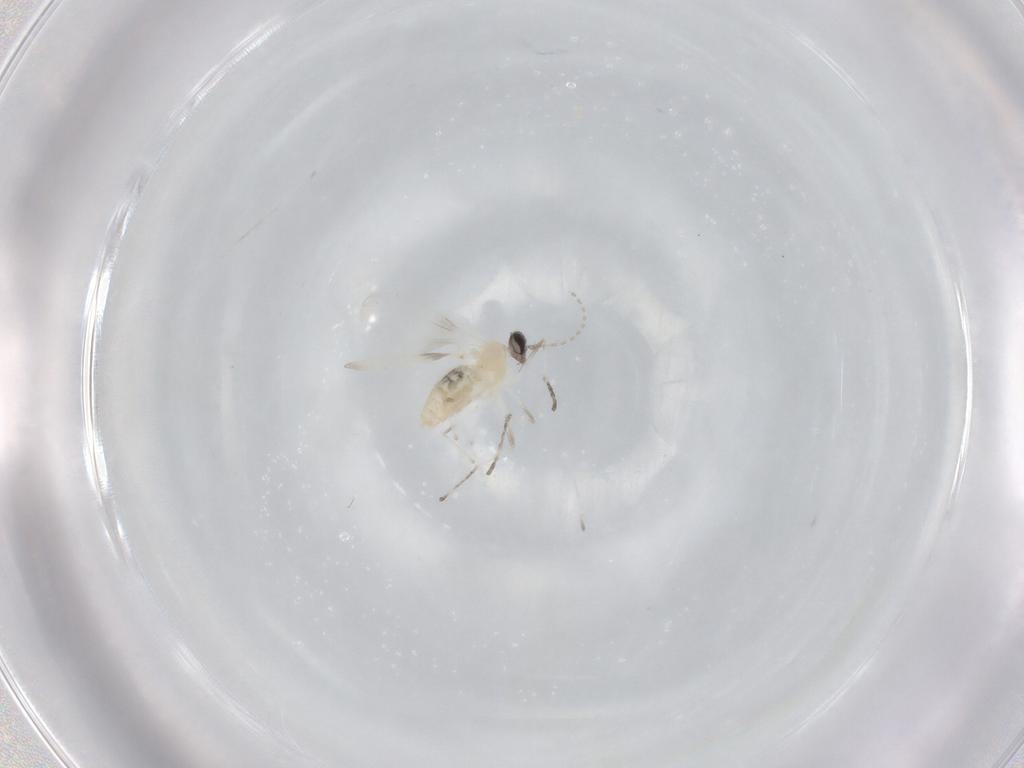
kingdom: Animalia
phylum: Arthropoda
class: Insecta
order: Diptera
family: Cecidomyiidae
